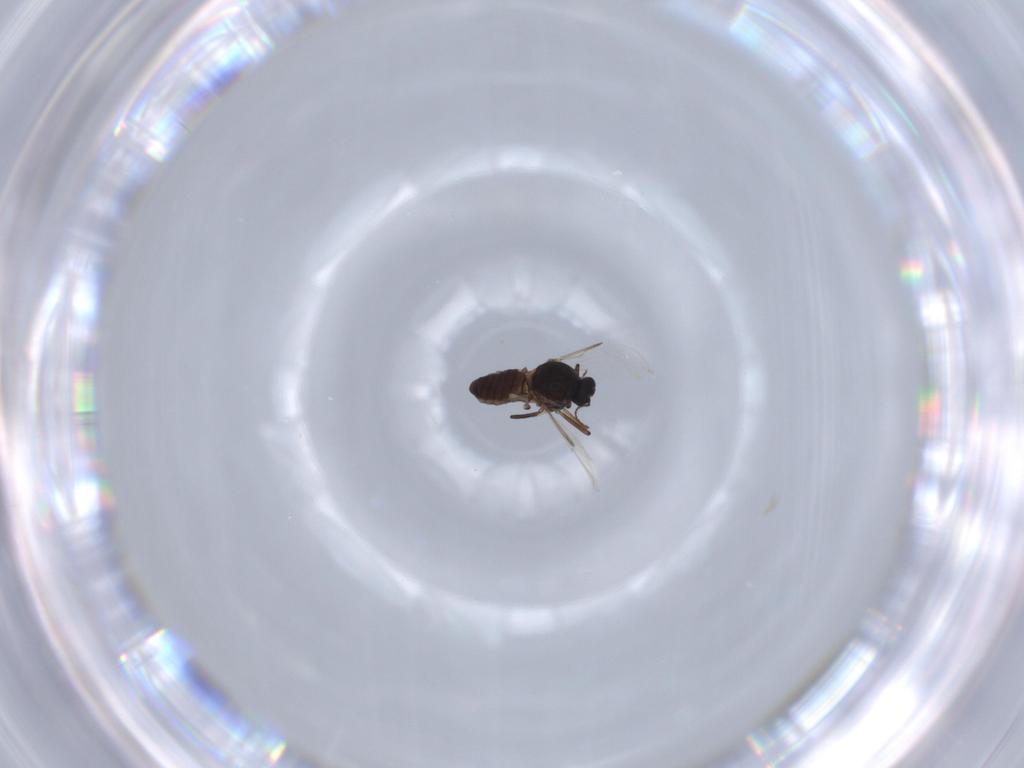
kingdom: Animalia
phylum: Arthropoda
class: Insecta
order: Diptera
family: Ceratopogonidae
